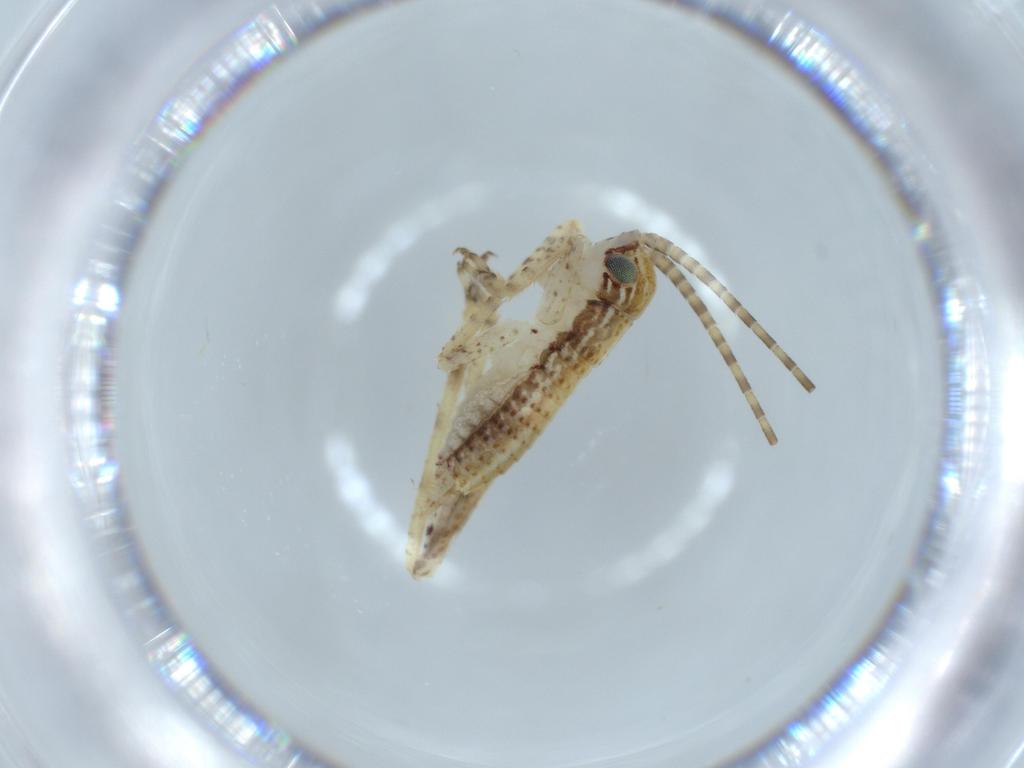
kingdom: Animalia
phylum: Arthropoda
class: Insecta
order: Orthoptera
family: Gryllidae
